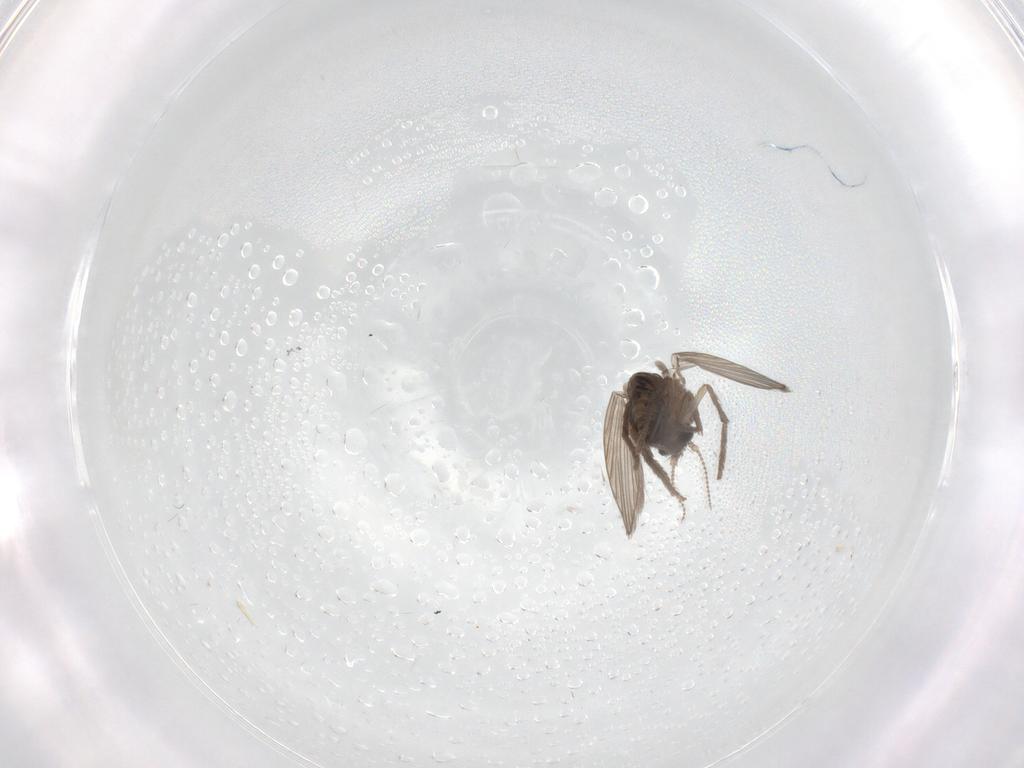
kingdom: Animalia
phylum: Arthropoda
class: Insecta
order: Diptera
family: Psychodidae
